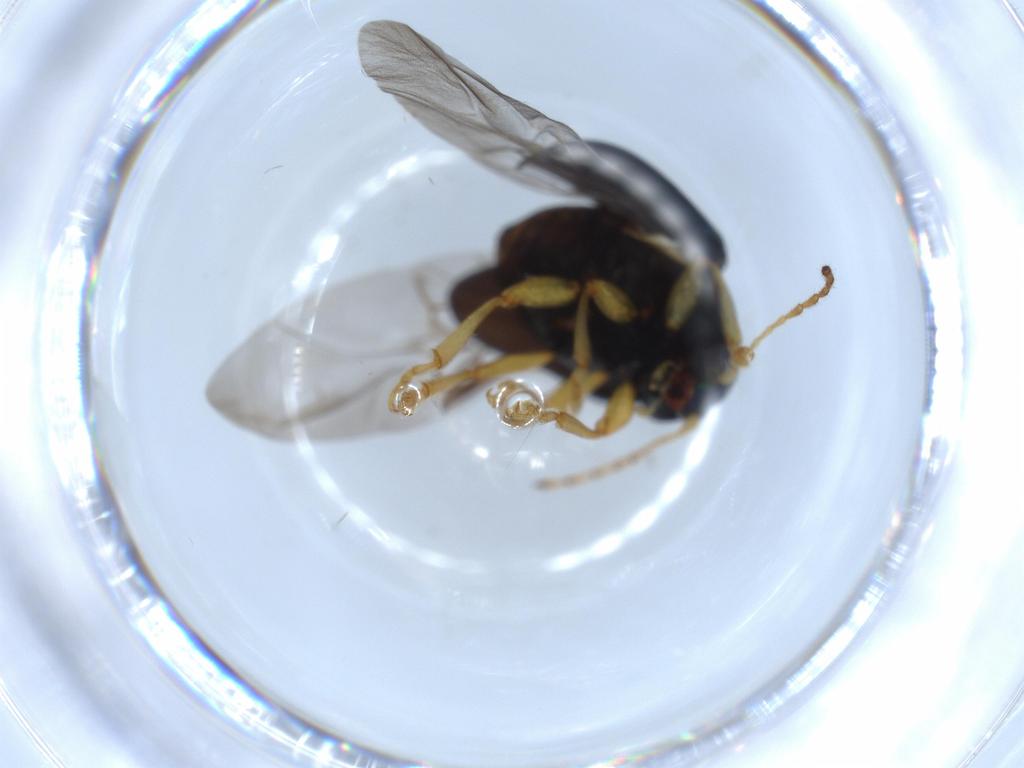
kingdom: Animalia
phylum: Arthropoda
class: Insecta
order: Coleoptera
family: Chrysomelidae
